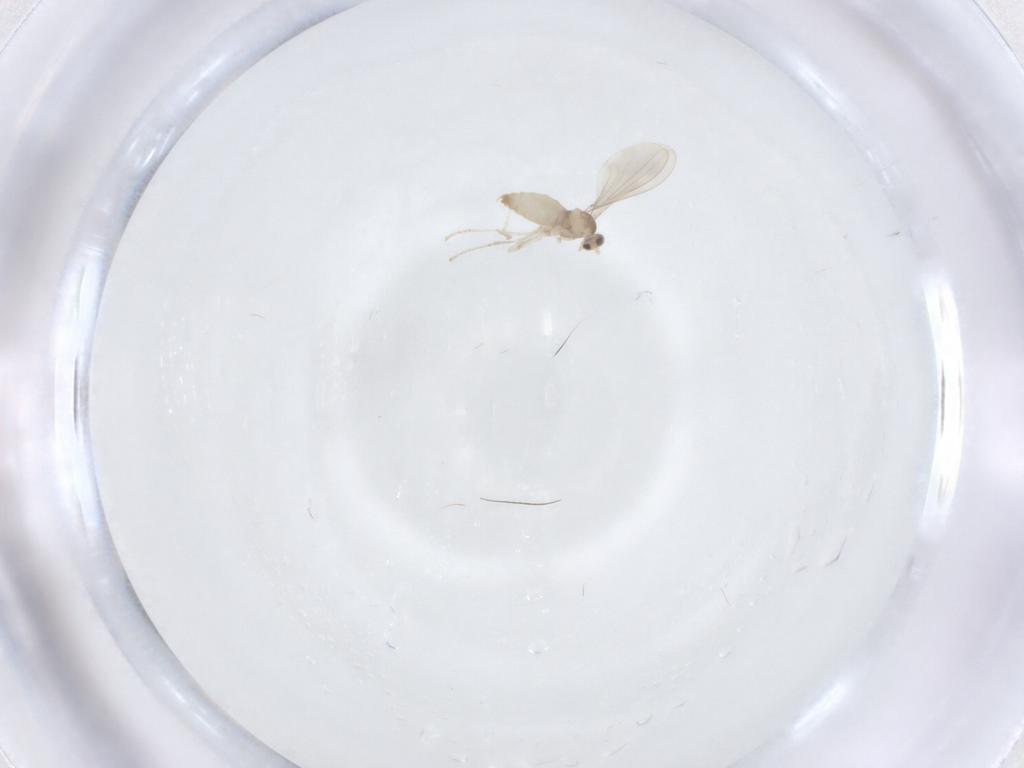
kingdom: Animalia
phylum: Arthropoda
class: Insecta
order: Diptera
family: Cecidomyiidae
